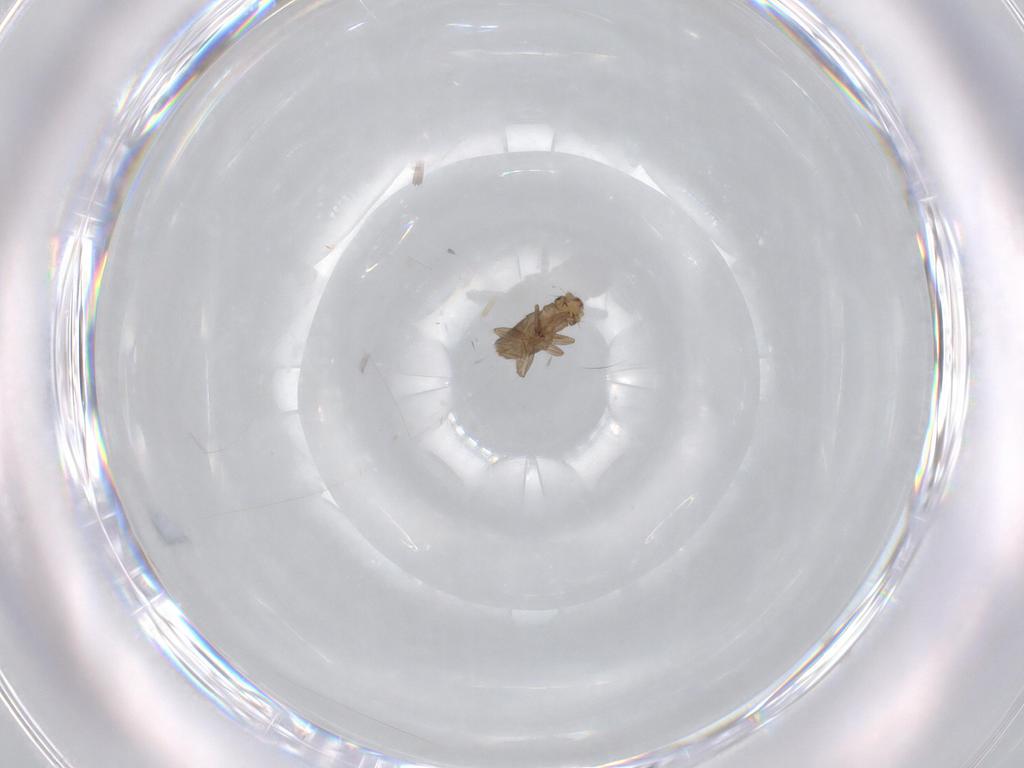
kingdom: Animalia
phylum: Arthropoda
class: Insecta
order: Diptera
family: Phoridae
